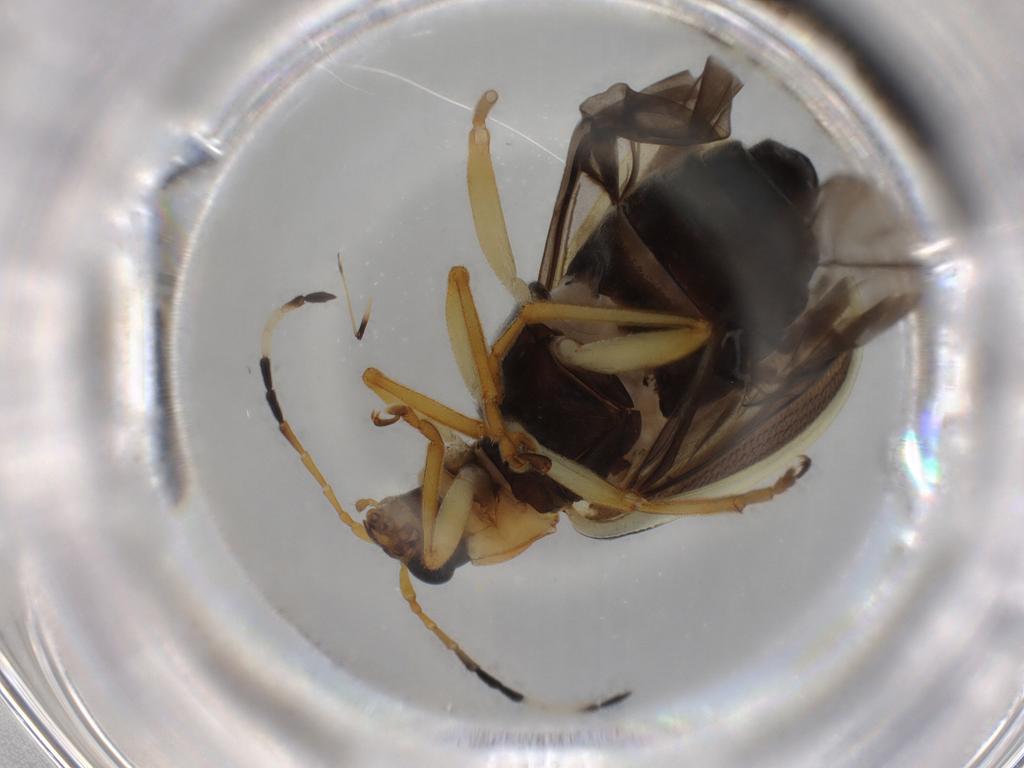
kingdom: Animalia
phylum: Arthropoda
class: Insecta
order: Coleoptera
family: Chrysomelidae
